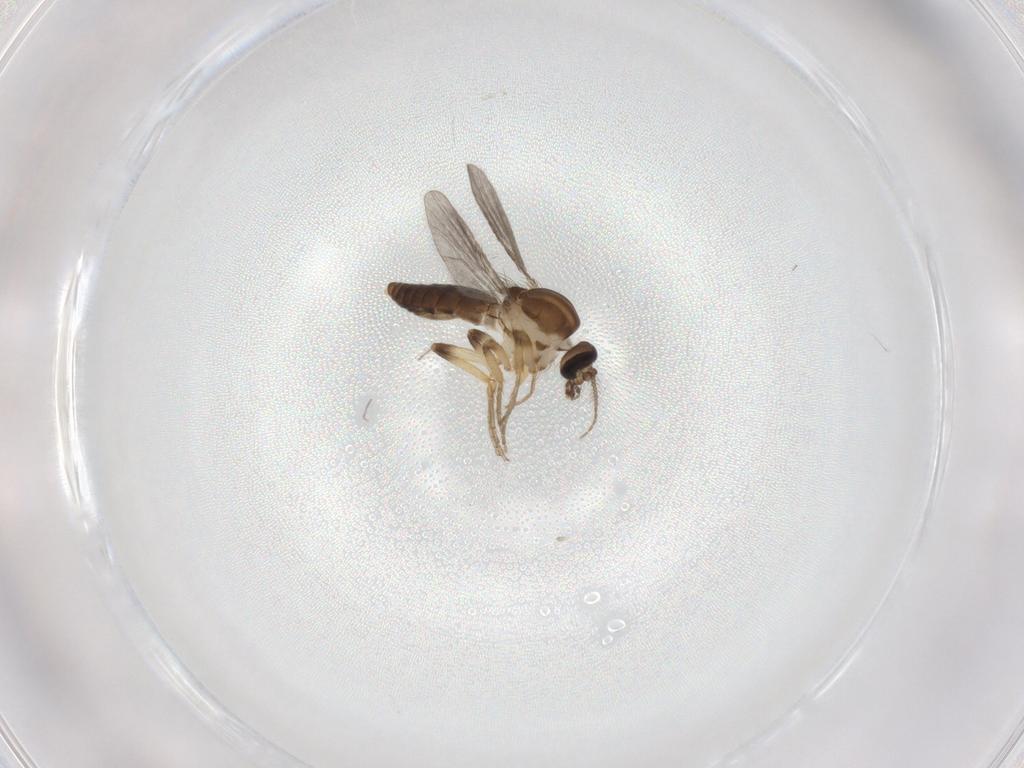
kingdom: Animalia
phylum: Arthropoda
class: Insecta
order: Diptera
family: Ceratopogonidae
